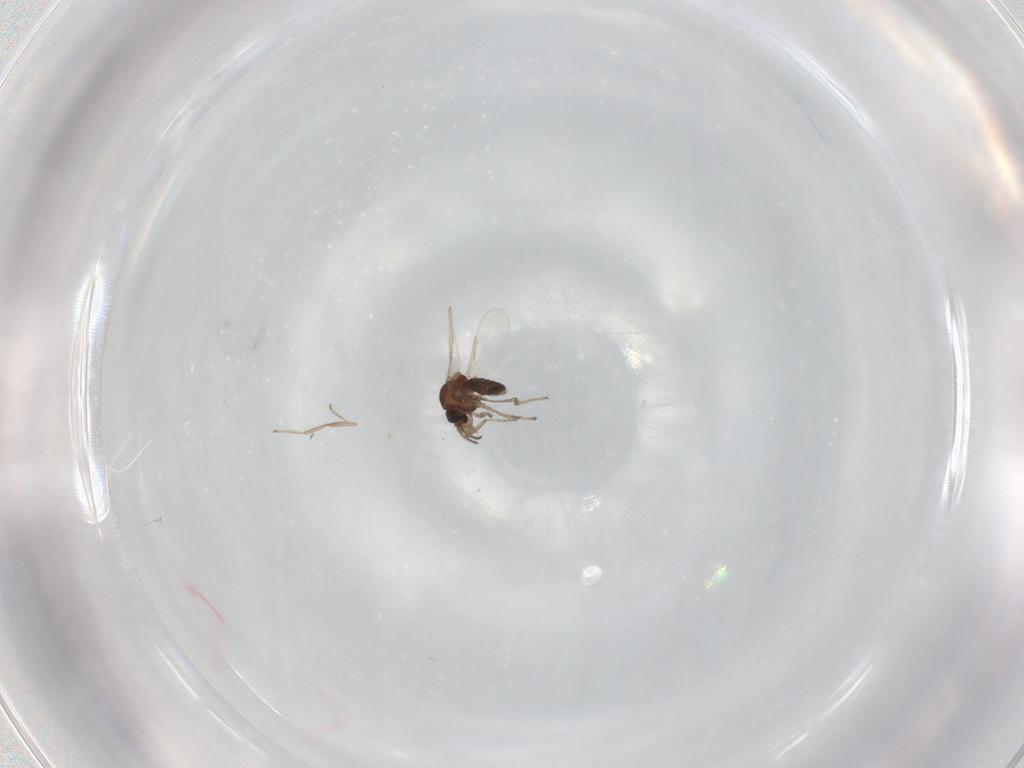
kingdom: Animalia
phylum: Arthropoda
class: Insecta
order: Diptera
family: Ceratopogonidae
